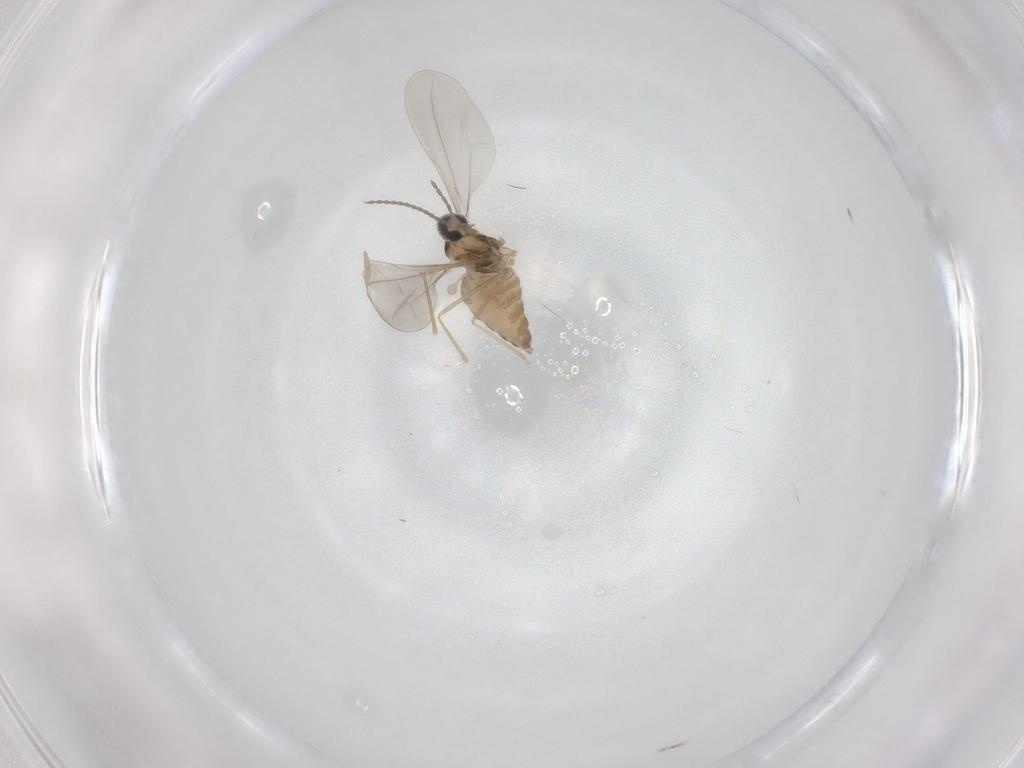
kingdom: Animalia
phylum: Arthropoda
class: Insecta
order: Diptera
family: Cecidomyiidae
